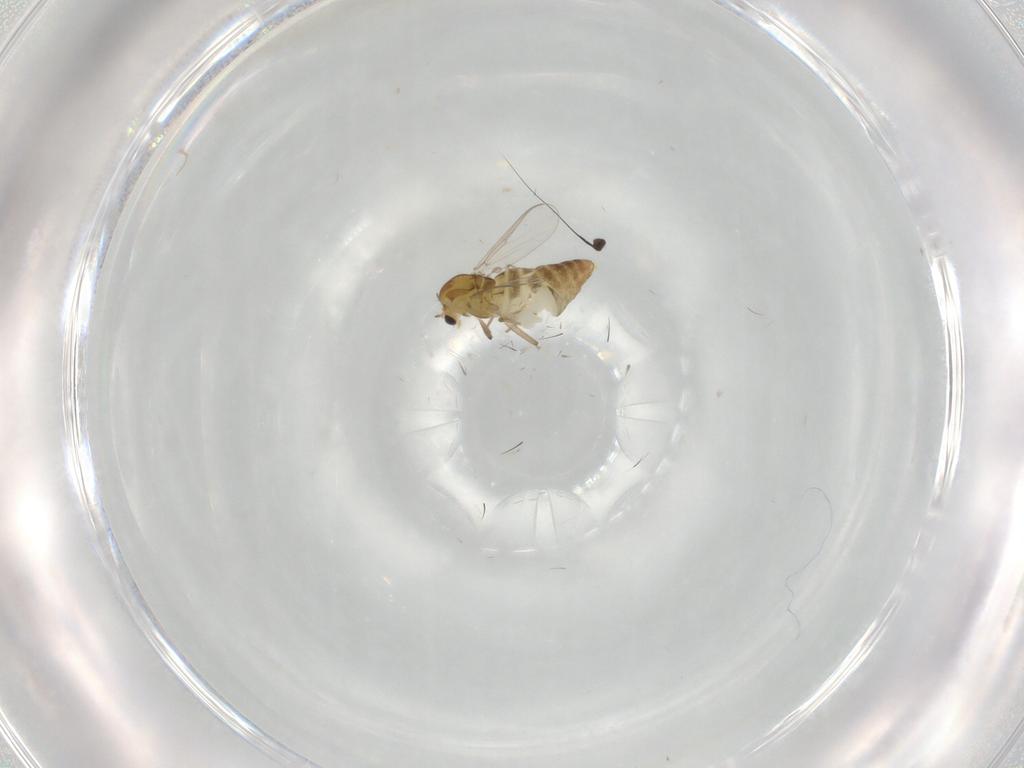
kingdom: Animalia
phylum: Arthropoda
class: Insecta
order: Diptera
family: Chironomidae
